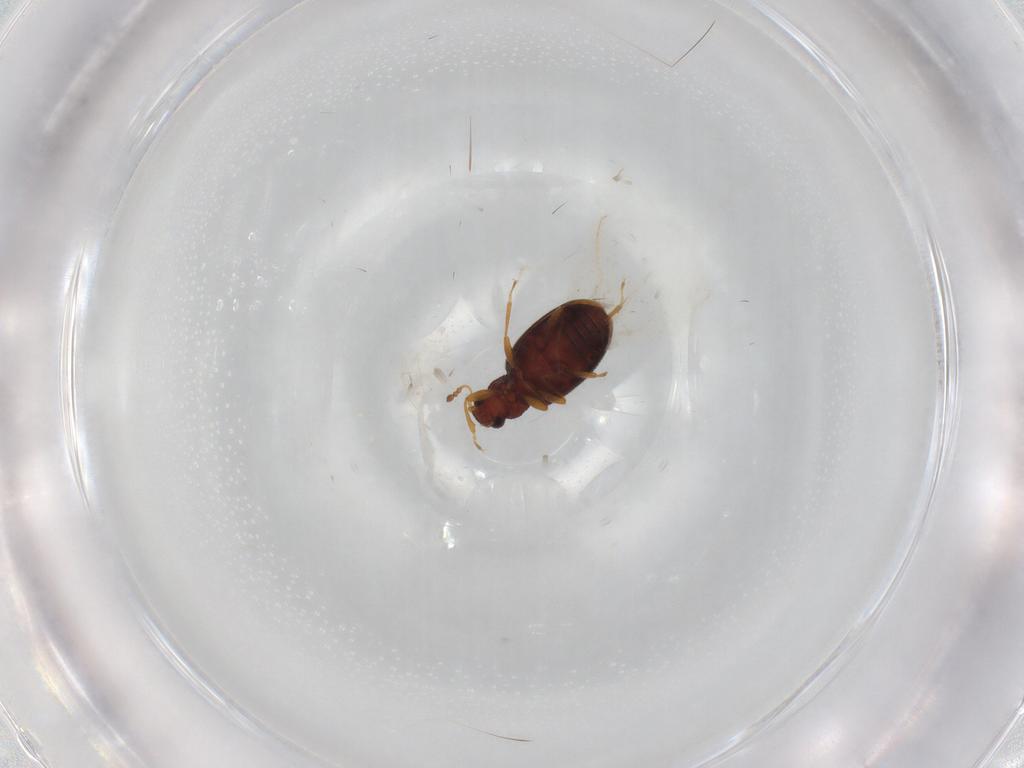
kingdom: Animalia
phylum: Arthropoda
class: Insecta
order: Coleoptera
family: Latridiidae
